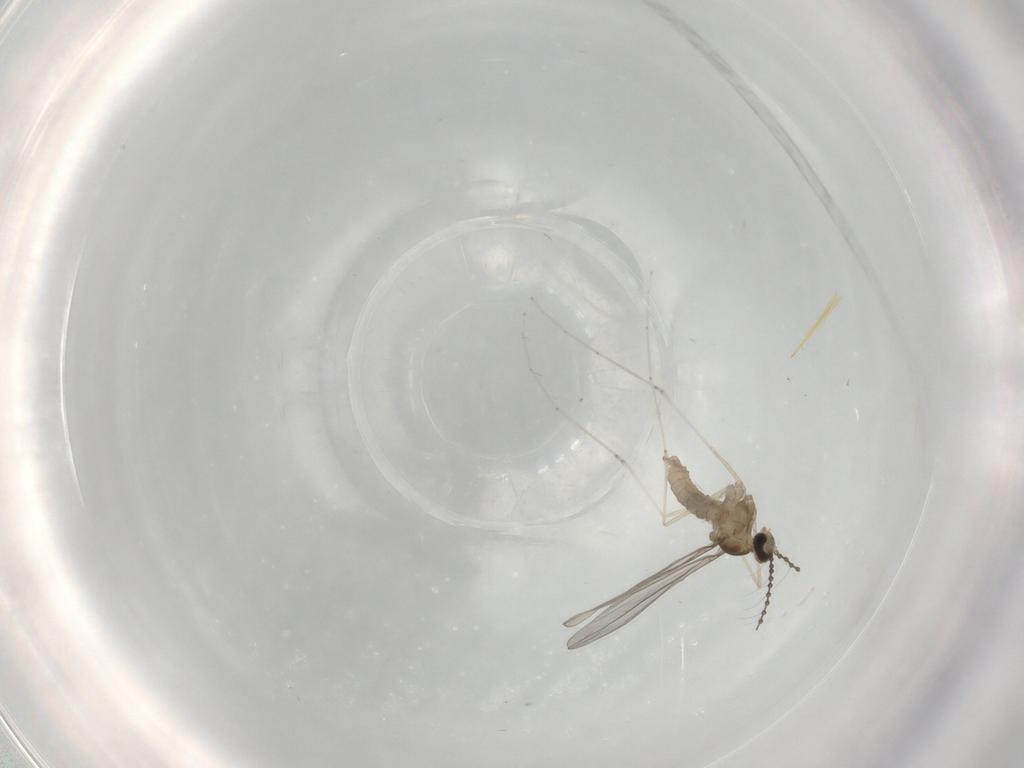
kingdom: Animalia
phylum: Arthropoda
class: Insecta
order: Diptera
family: Cecidomyiidae
